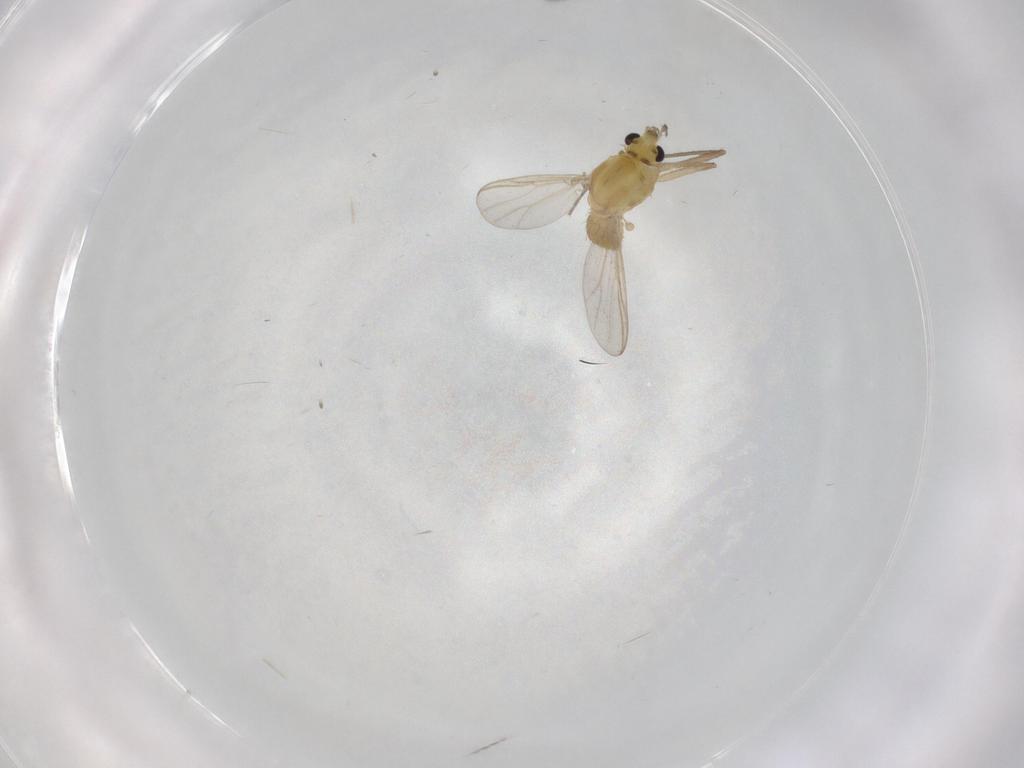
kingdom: Animalia
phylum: Arthropoda
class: Insecta
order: Diptera
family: Chironomidae
